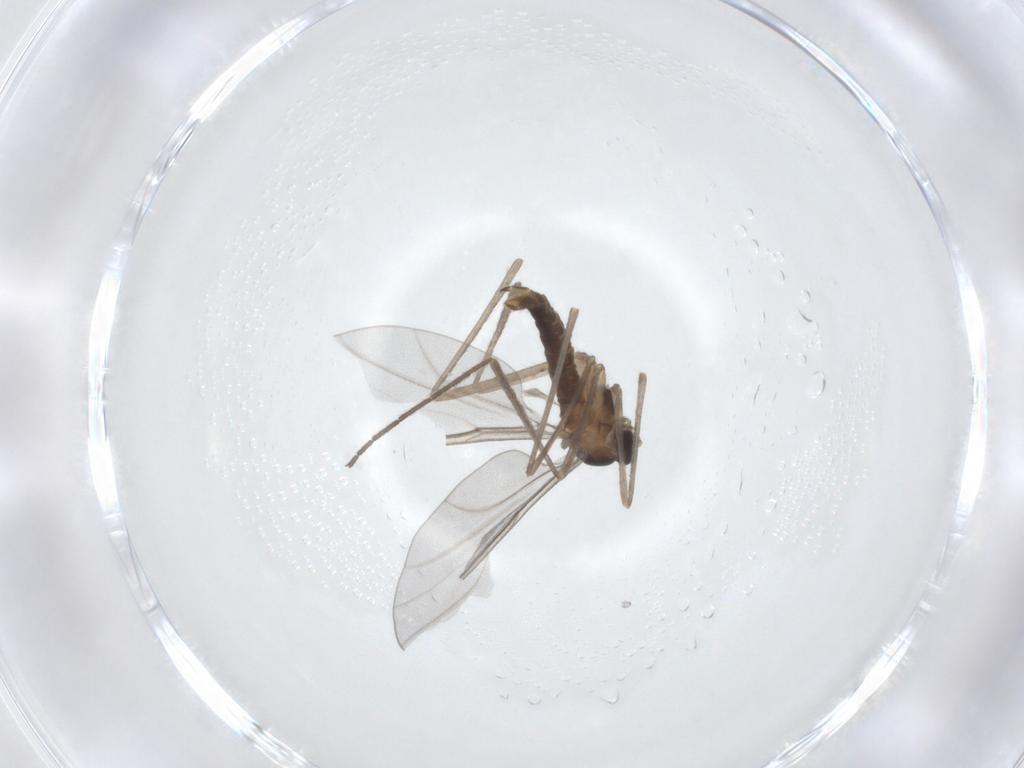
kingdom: Animalia
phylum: Arthropoda
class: Insecta
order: Diptera
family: Cecidomyiidae
